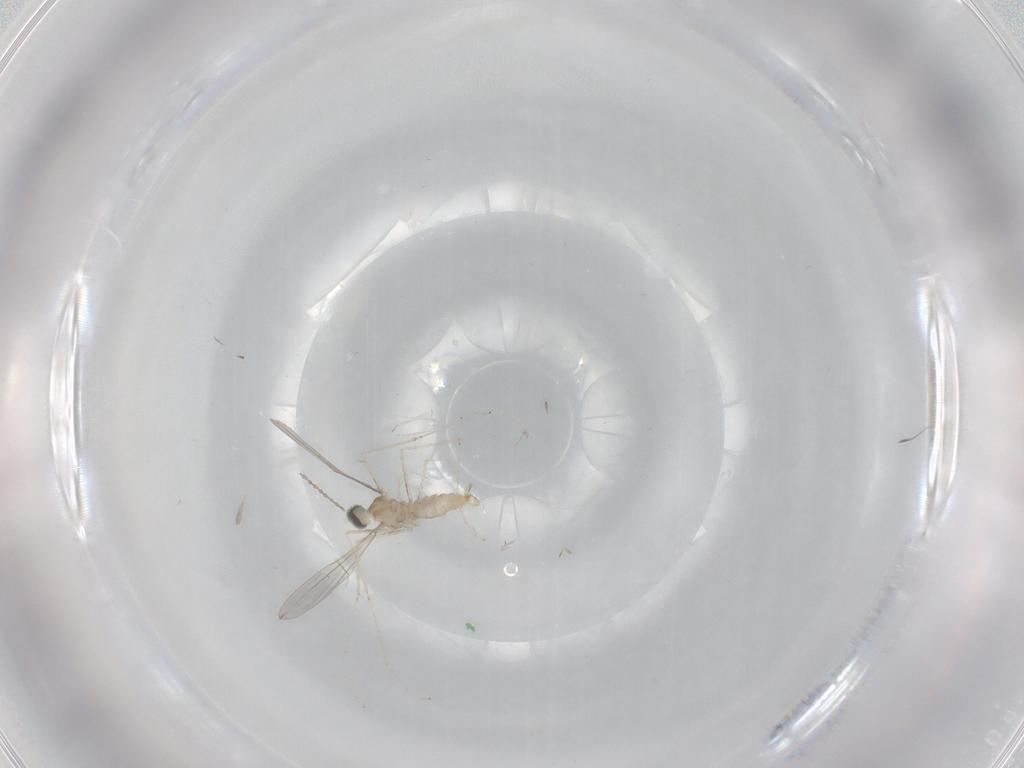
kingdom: Animalia
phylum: Arthropoda
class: Insecta
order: Diptera
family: Cecidomyiidae
